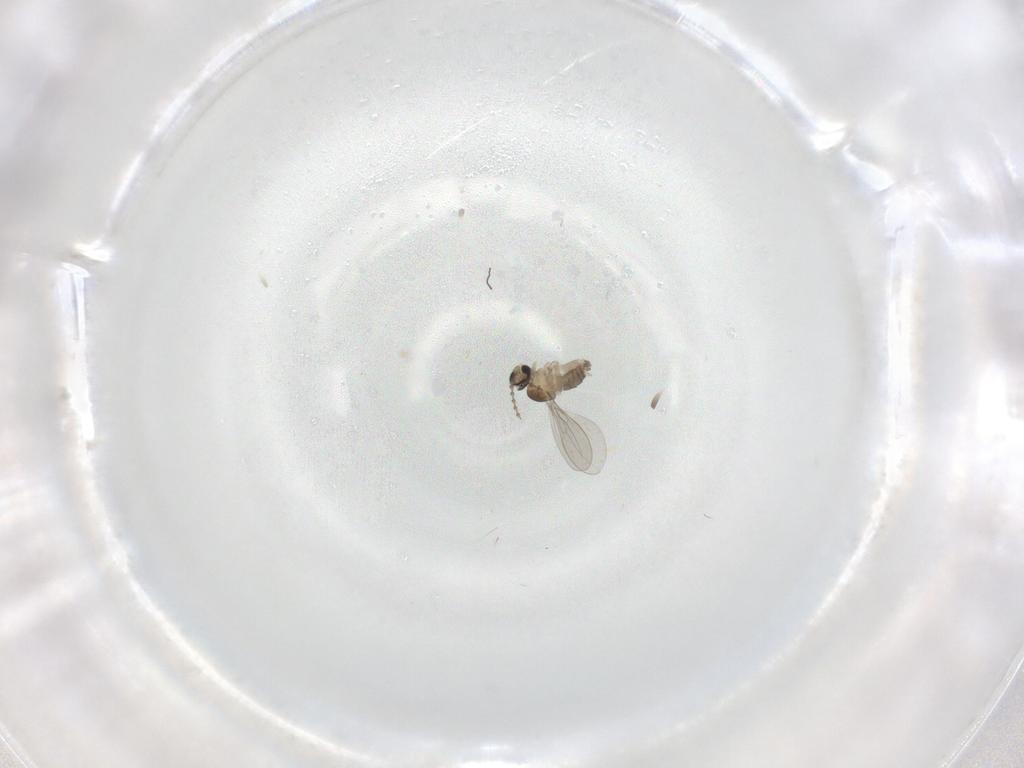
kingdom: Animalia
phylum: Arthropoda
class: Insecta
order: Diptera
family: Cecidomyiidae
